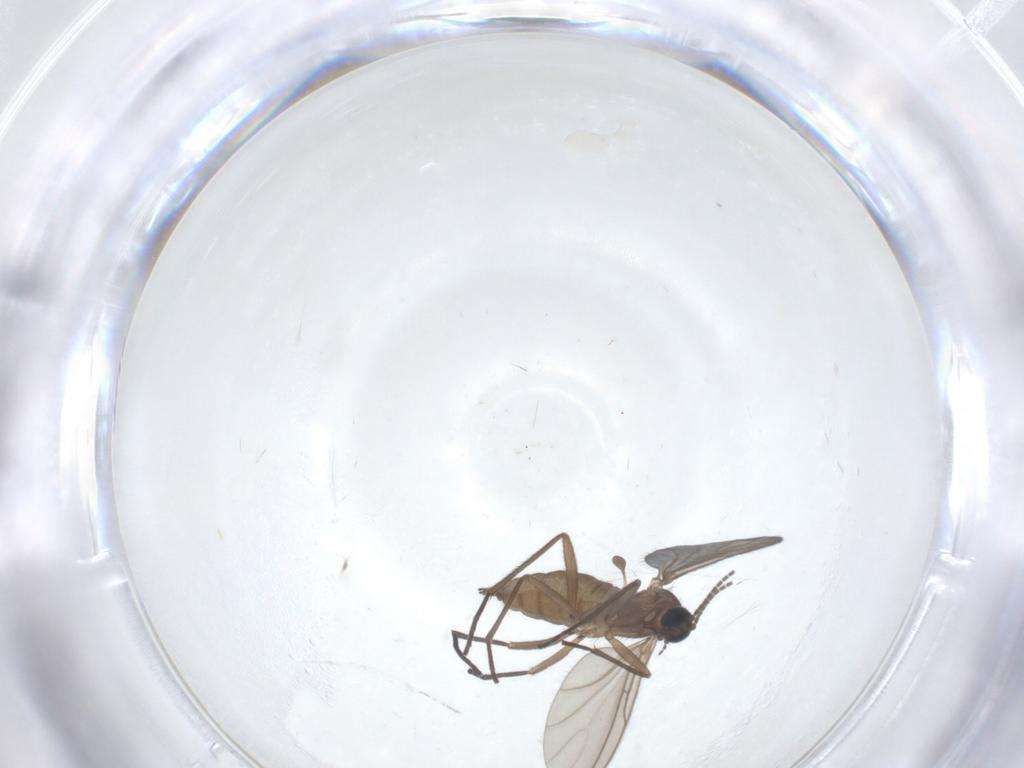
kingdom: Animalia
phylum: Arthropoda
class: Insecta
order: Diptera
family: Sciaridae
